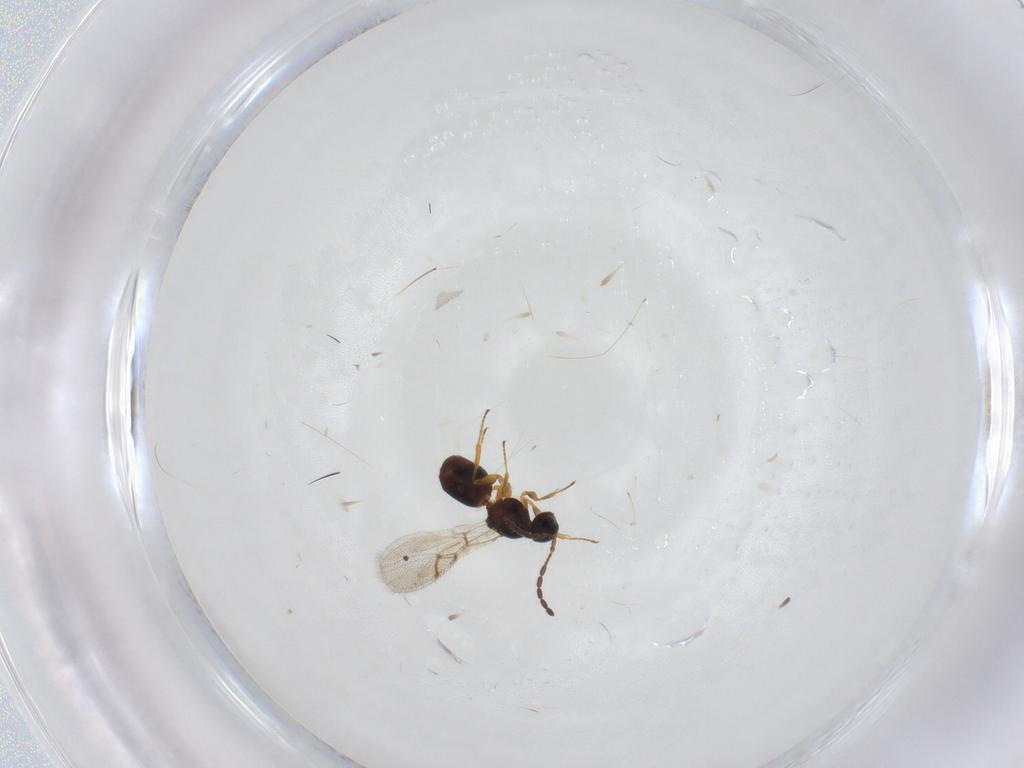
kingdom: Animalia
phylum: Arthropoda
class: Insecta
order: Hymenoptera
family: Figitidae
